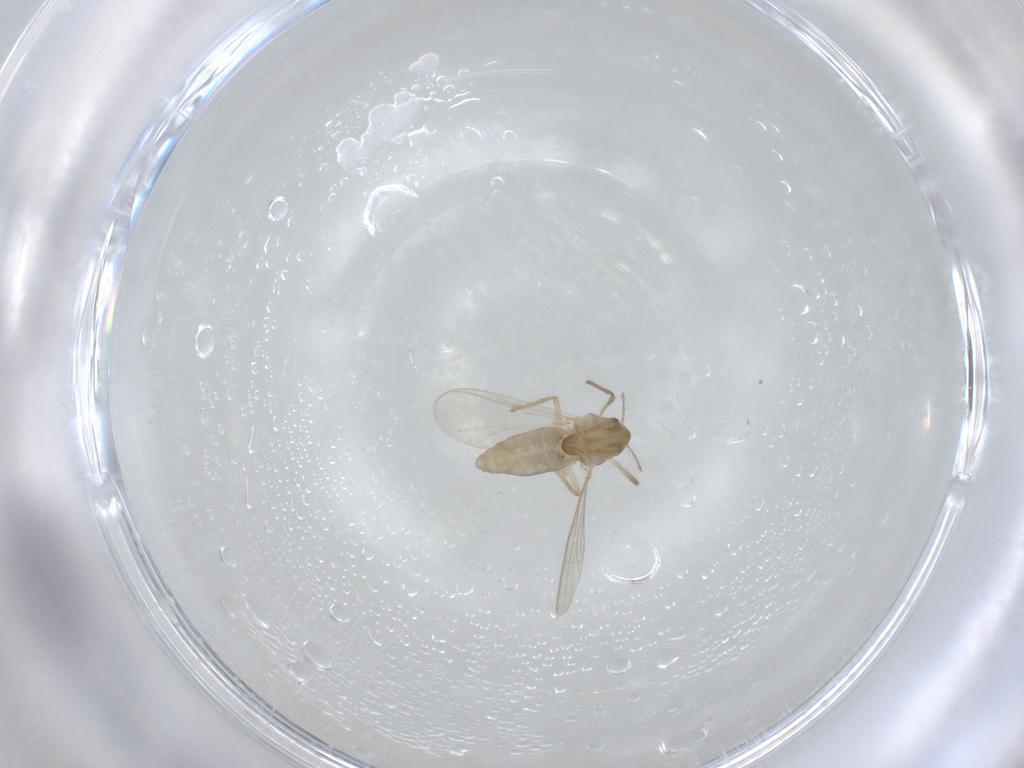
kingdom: Animalia
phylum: Arthropoda
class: Insecta
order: Diptera
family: Chironomidae
